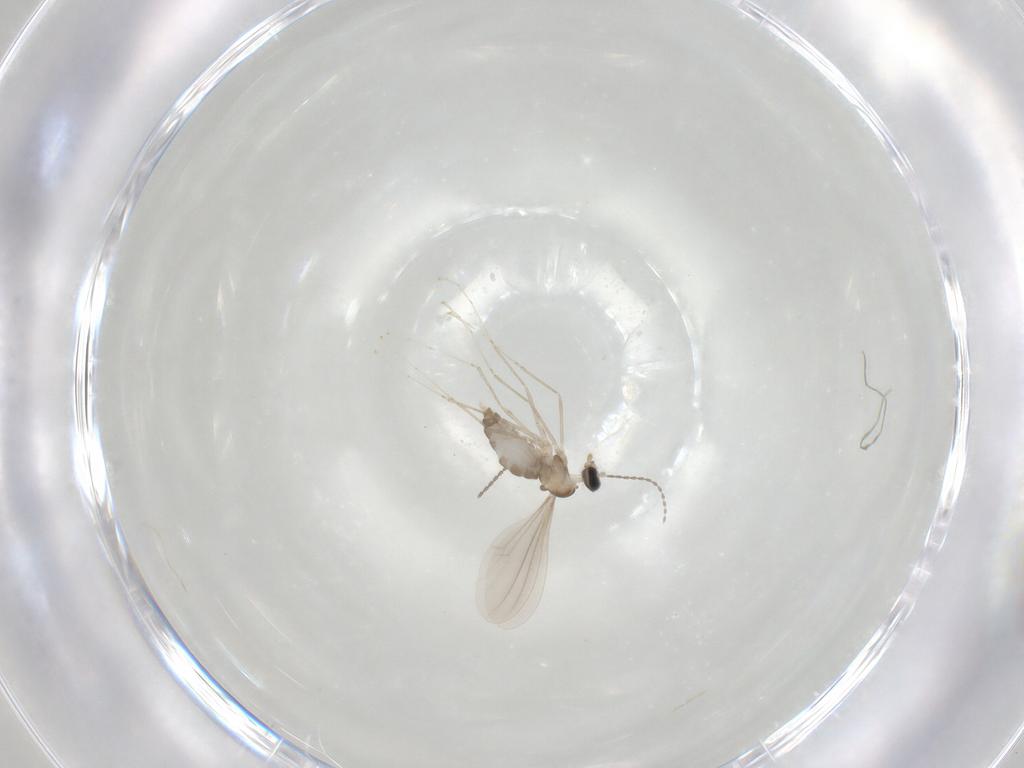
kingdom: Animalia
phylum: Arthropoda
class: Insecta
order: Diptera
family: Cecidomyiidae
